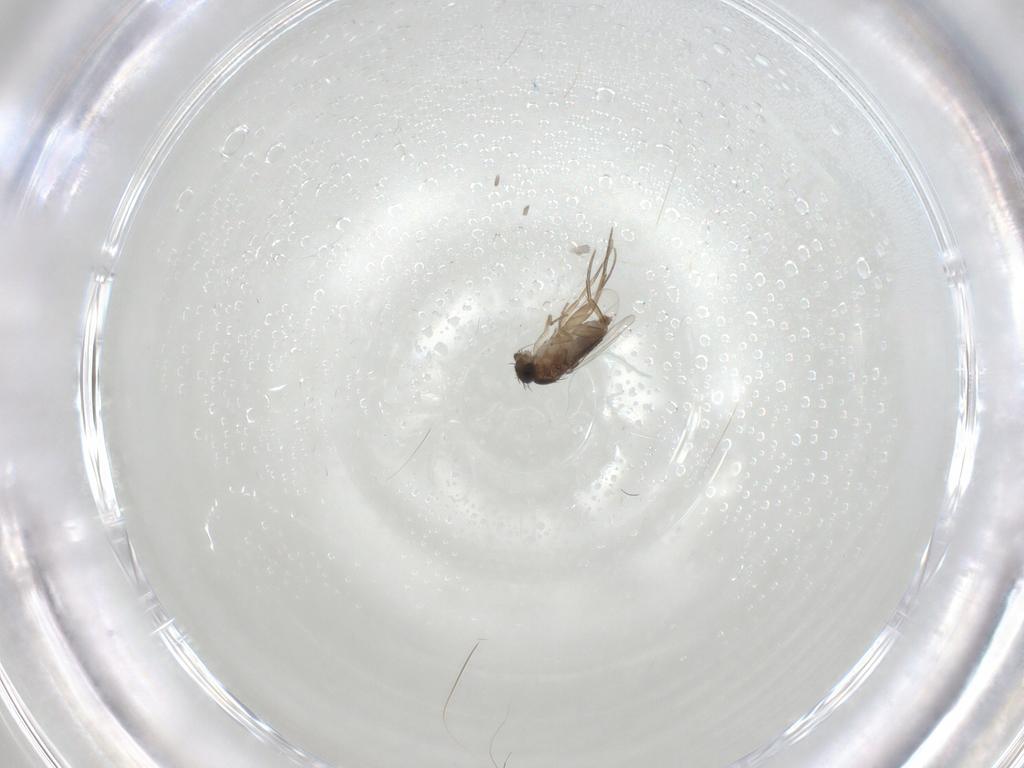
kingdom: Animalia
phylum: Arthropoda
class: Insecta
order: Diptera
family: Phoridae
